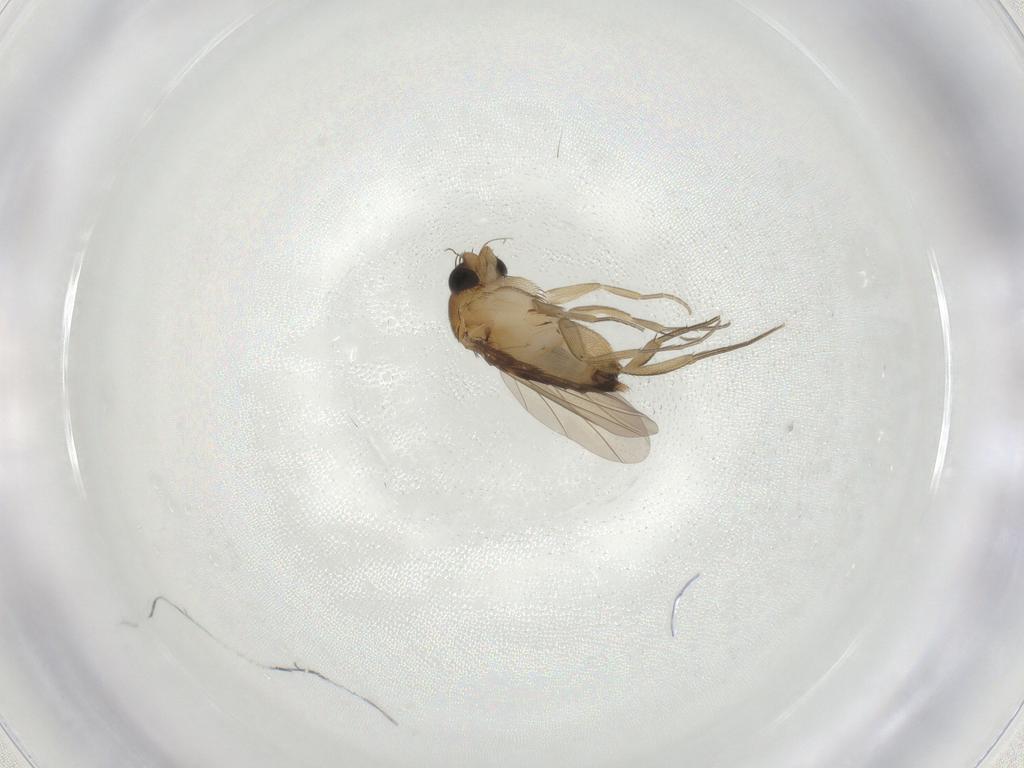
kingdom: Animalia
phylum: Arthropoda
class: Insecta
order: Diptera
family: Phoridae
